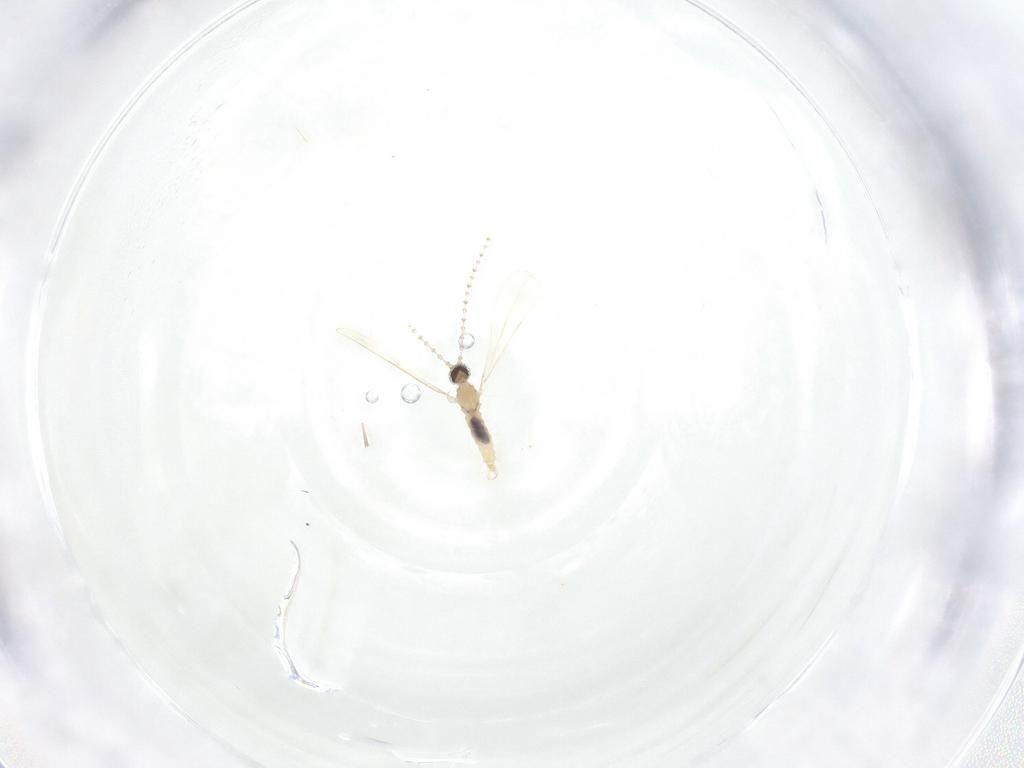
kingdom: Animalia
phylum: Arthropoda
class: Insecta
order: Diptera
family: Cecidomyiidae
